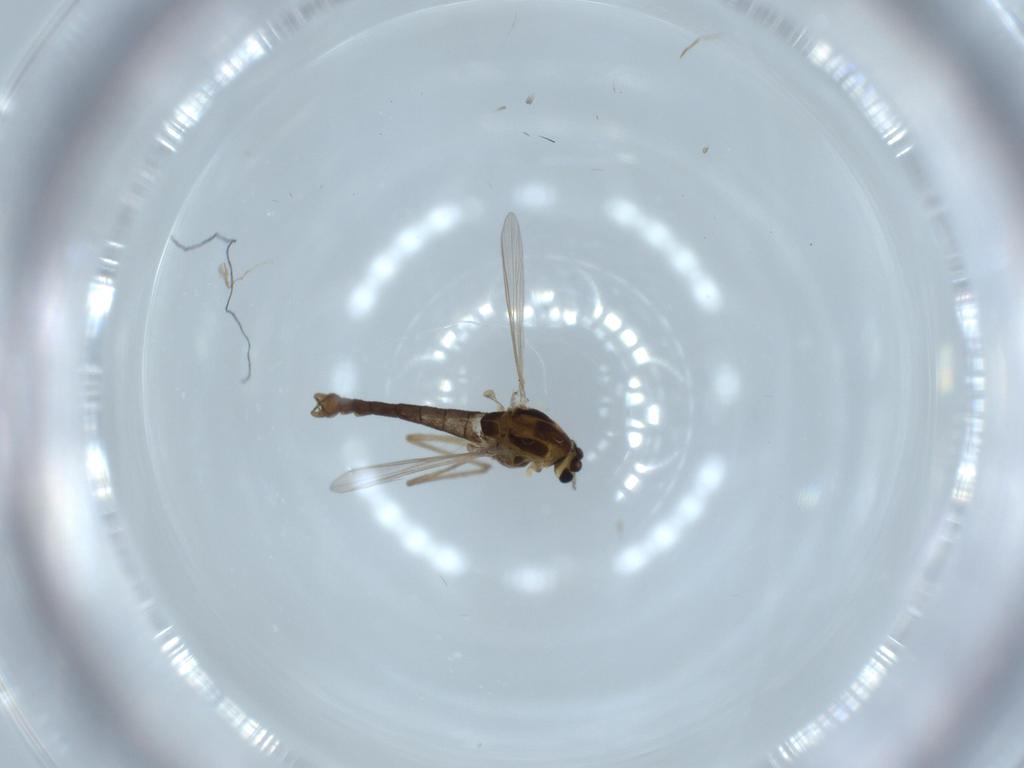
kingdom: Animalia
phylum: Arthropoda
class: Insecta
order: Diptera
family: Chironomidae
